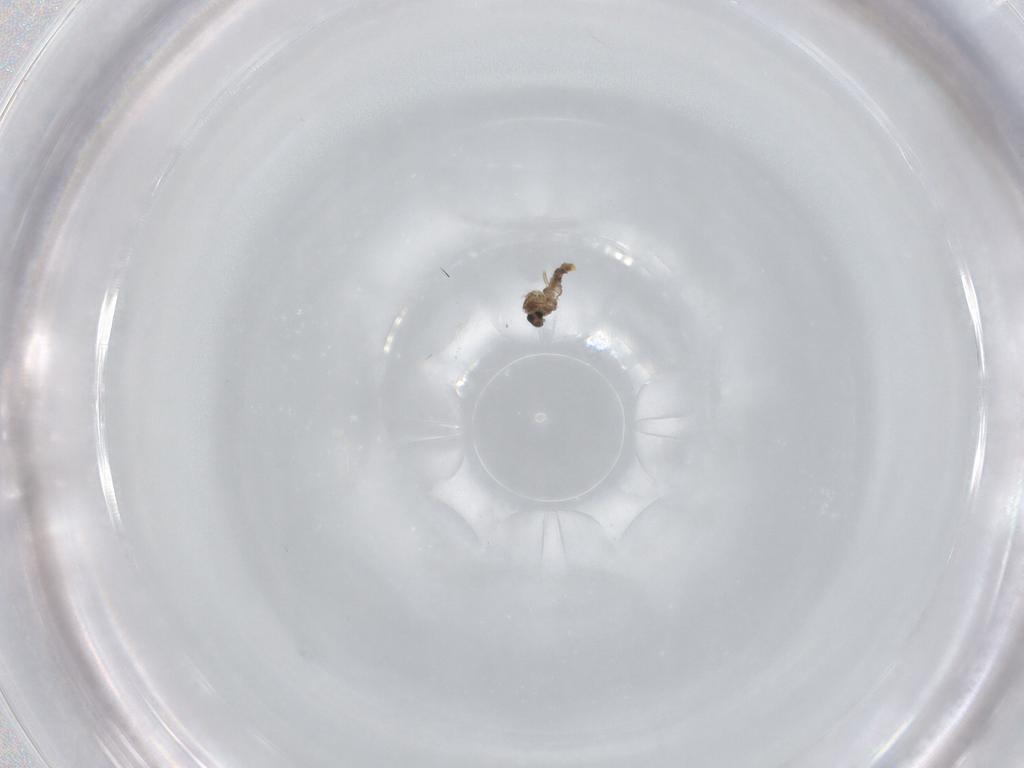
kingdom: Animalia
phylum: Arthropoda
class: Insecta
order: Diptera
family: Cecidomyiidae
